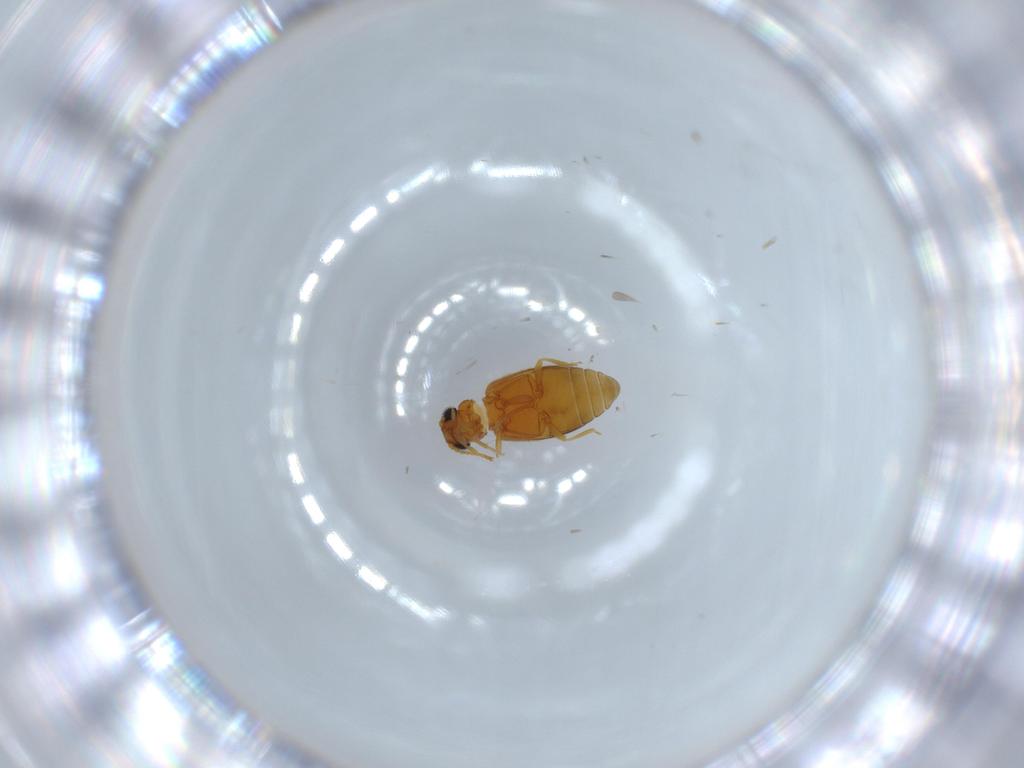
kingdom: Animalia
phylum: Arthropoda
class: Insecta
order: Coleoptera
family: Aderidae
